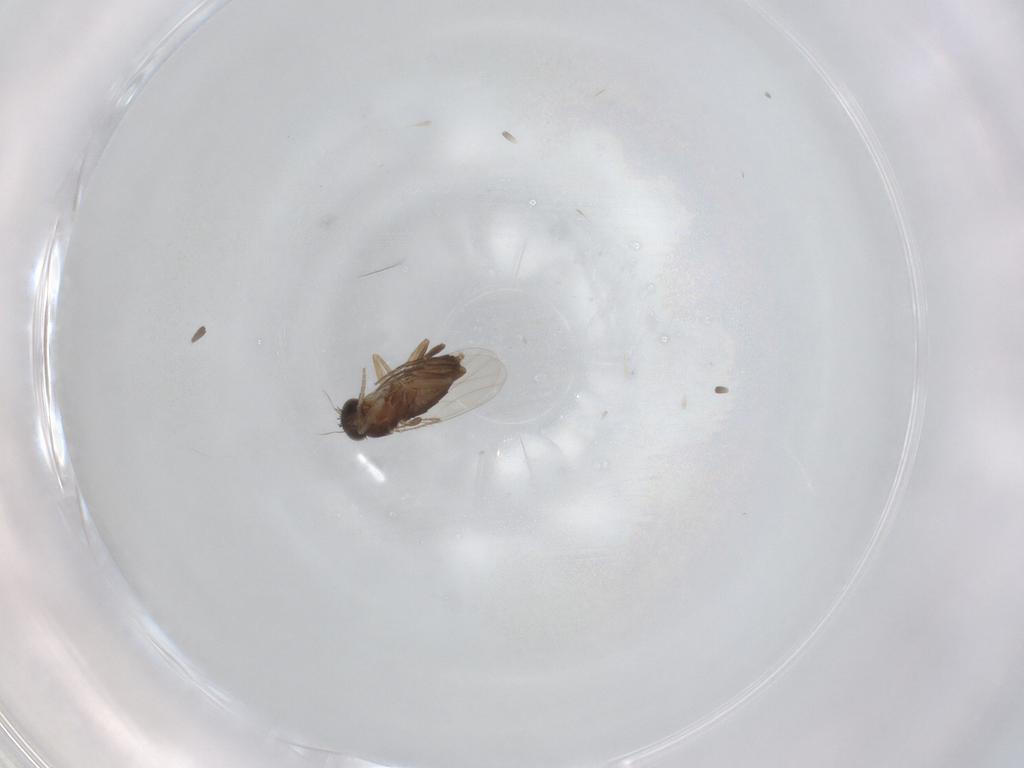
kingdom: Animalia
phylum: Arthropoda
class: Insecta
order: Diptera
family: Phoridae
